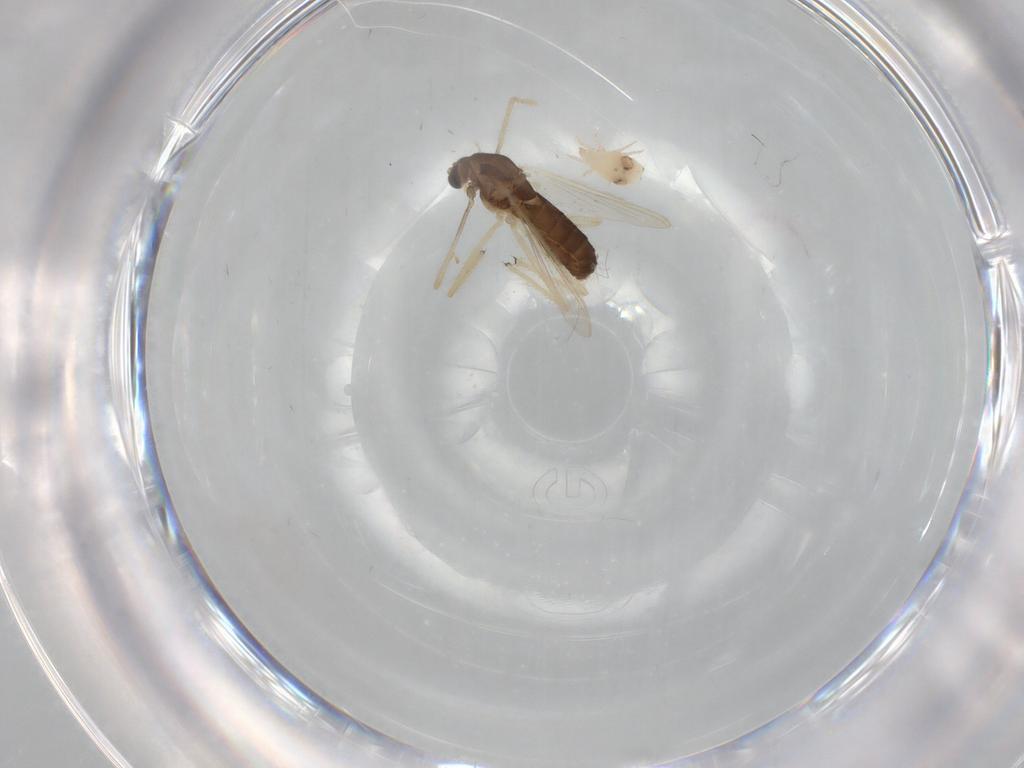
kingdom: Animalia
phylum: Arthropoda
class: Insecta
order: Diptera
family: Chironomidae
